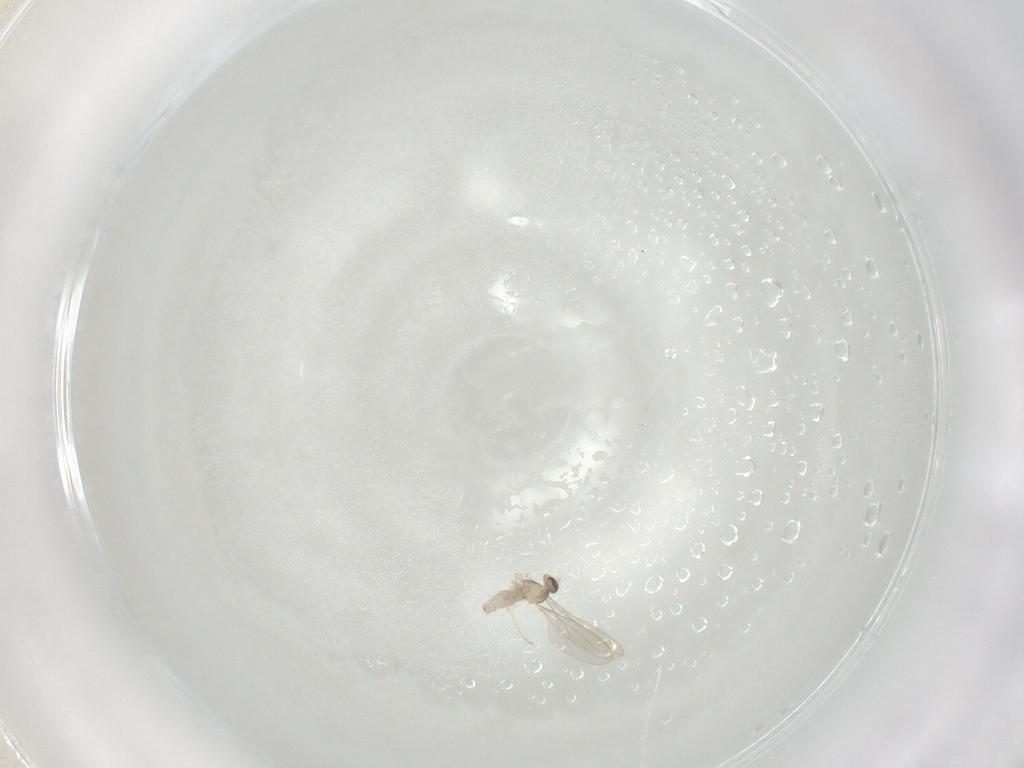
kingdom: Animalia
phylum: Arthropoda
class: Insecta
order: Diptera
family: Cecidomyiidae
